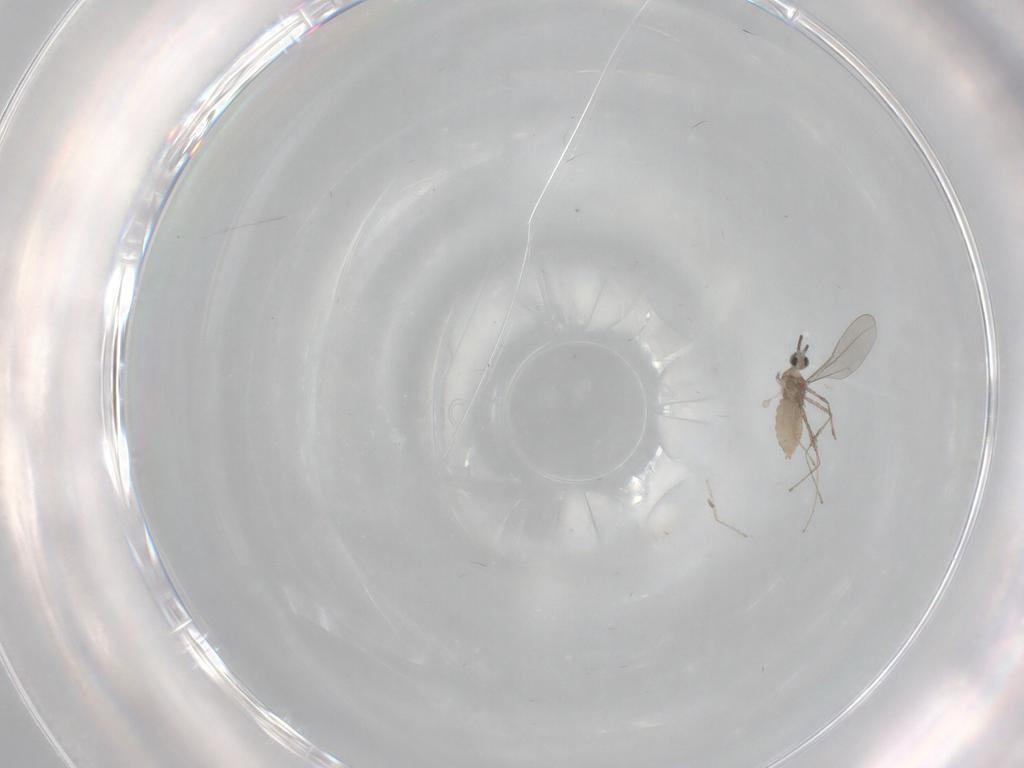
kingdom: Animalia
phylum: Arthropoda
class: Insecta
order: Diptera
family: Cecidomyiidae
